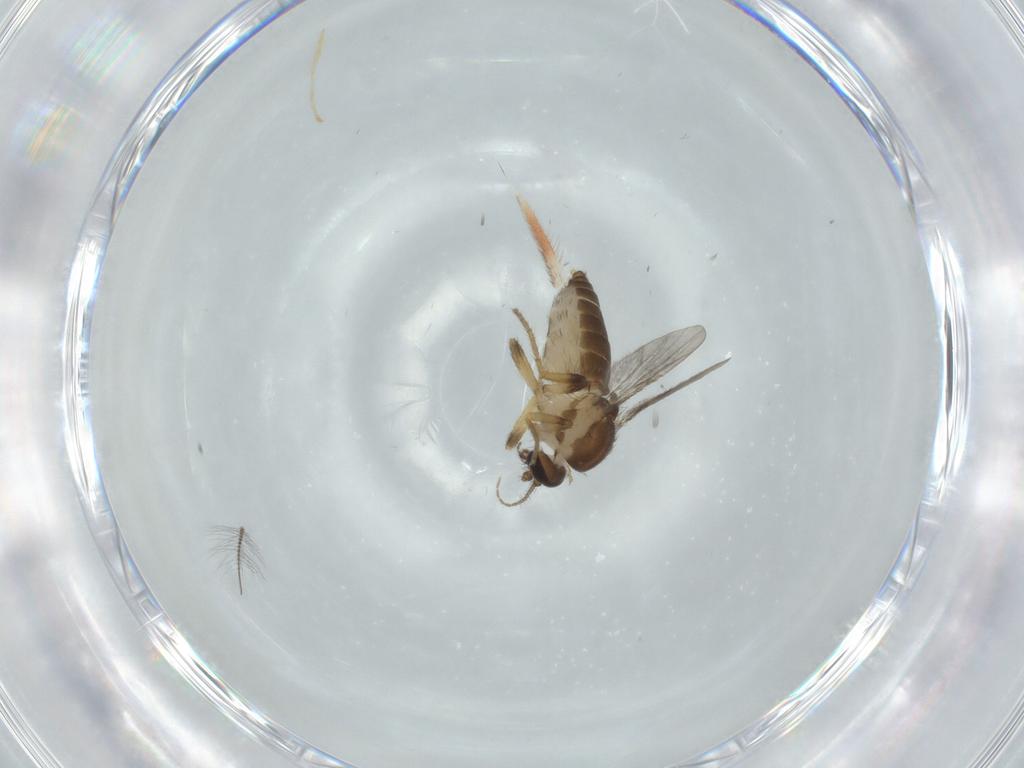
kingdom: Animalia
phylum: Arthropoda
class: Insecta
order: Diptera
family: Ceratopogonidae
